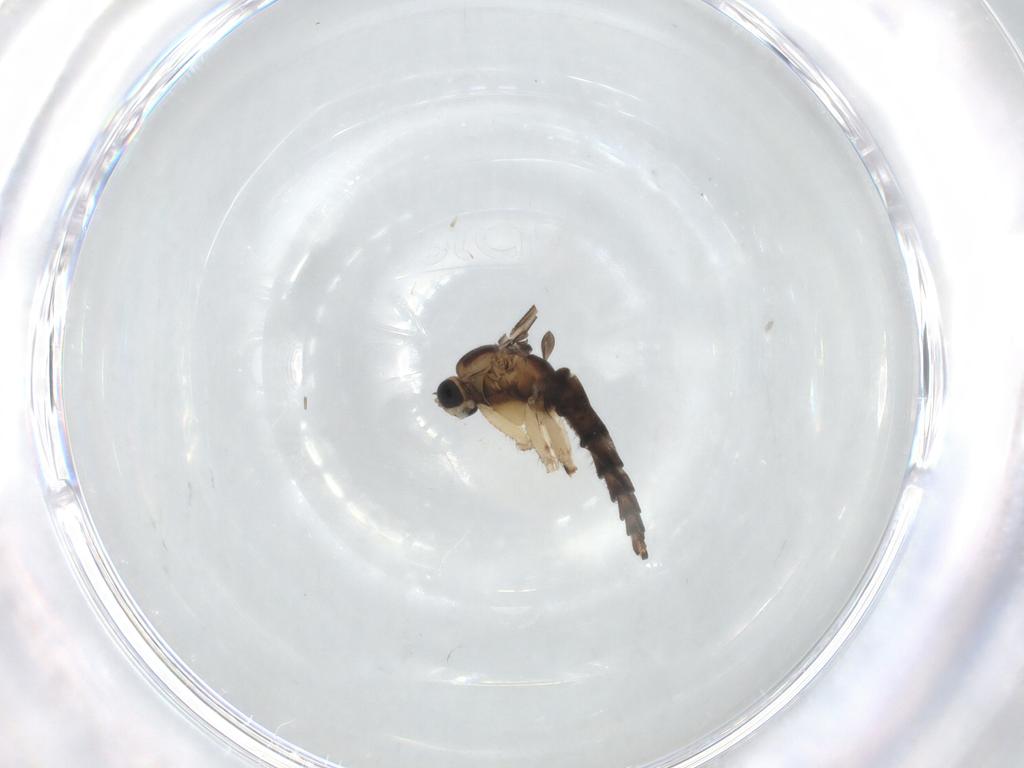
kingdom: Animalia
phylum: Arthropoda
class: Insecta
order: Diptera
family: Sciaridae
